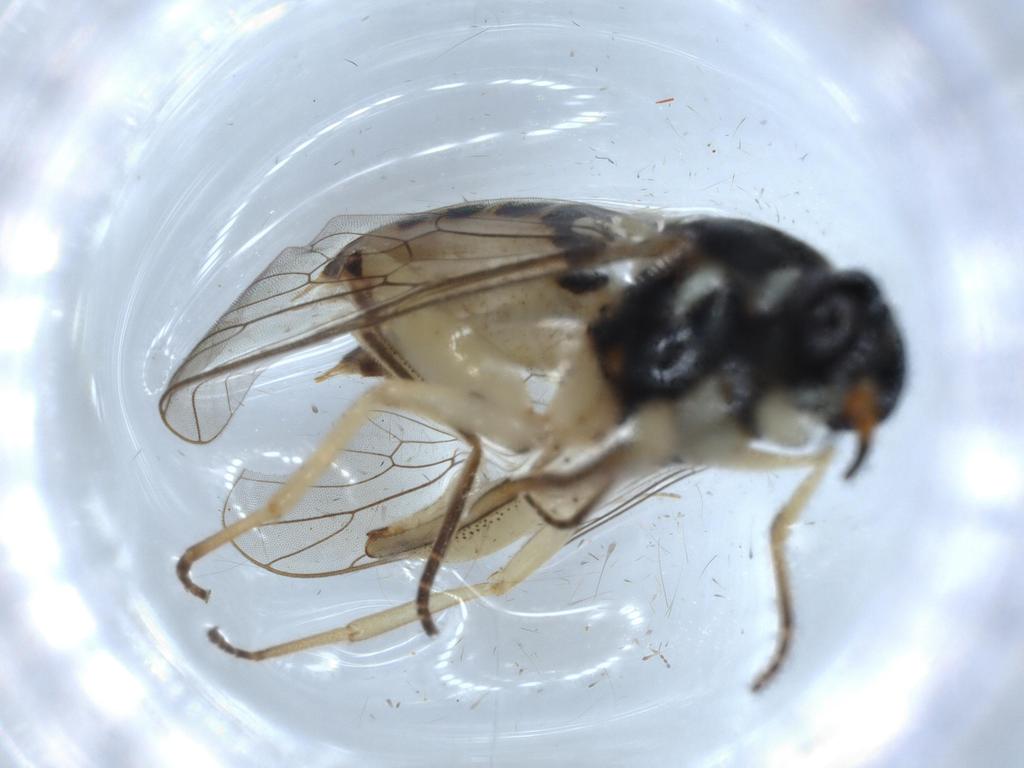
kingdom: Animalia
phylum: Arthropoda
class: Insecta
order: Diptera
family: Cecidomyiidae
